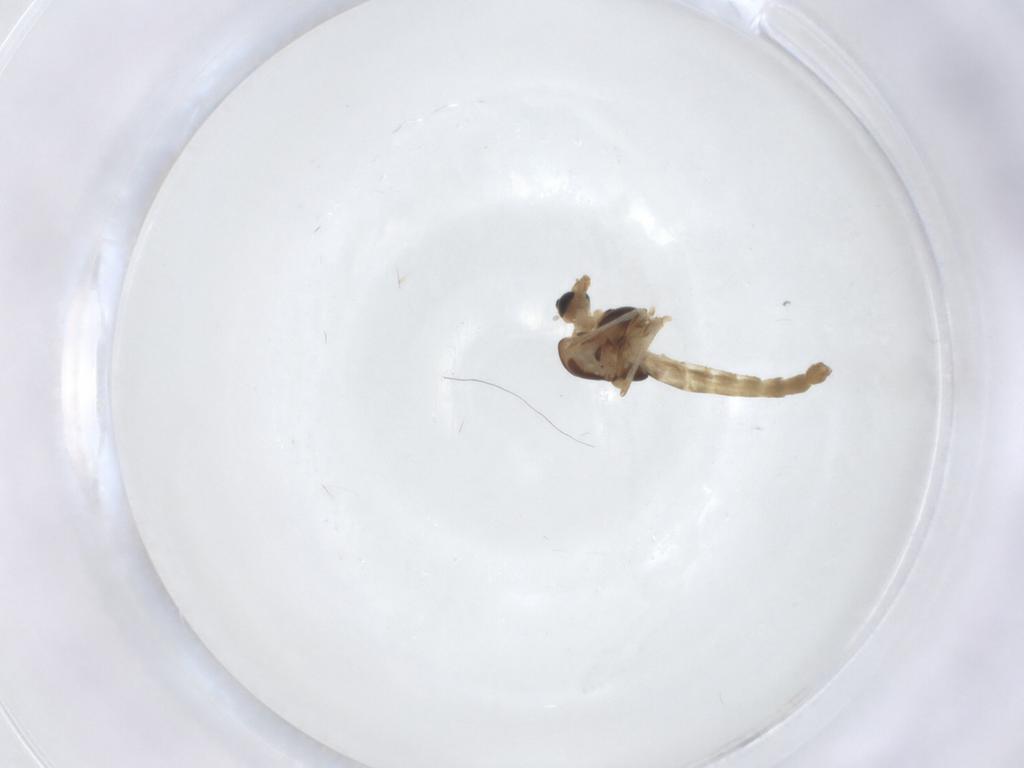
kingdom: Animalia
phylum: Arthropoda
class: Insecta
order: Diptera
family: Chironomidae
